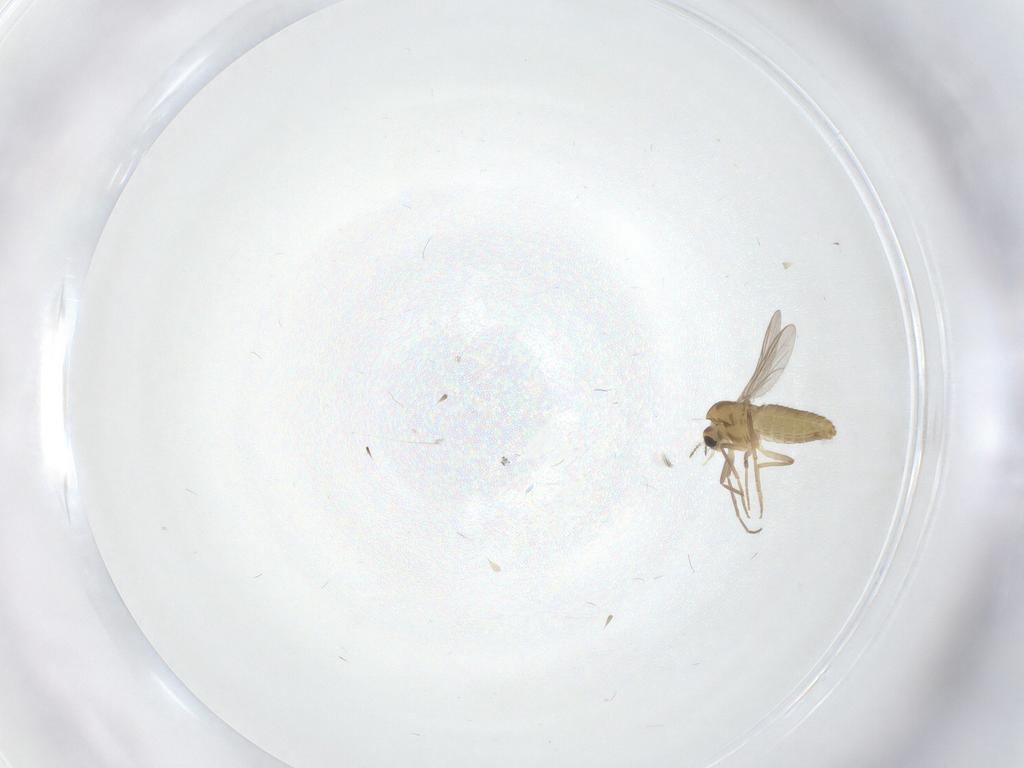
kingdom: Animalia
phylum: Arthropoda
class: Insecta
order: Diptera
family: Chironomidae
